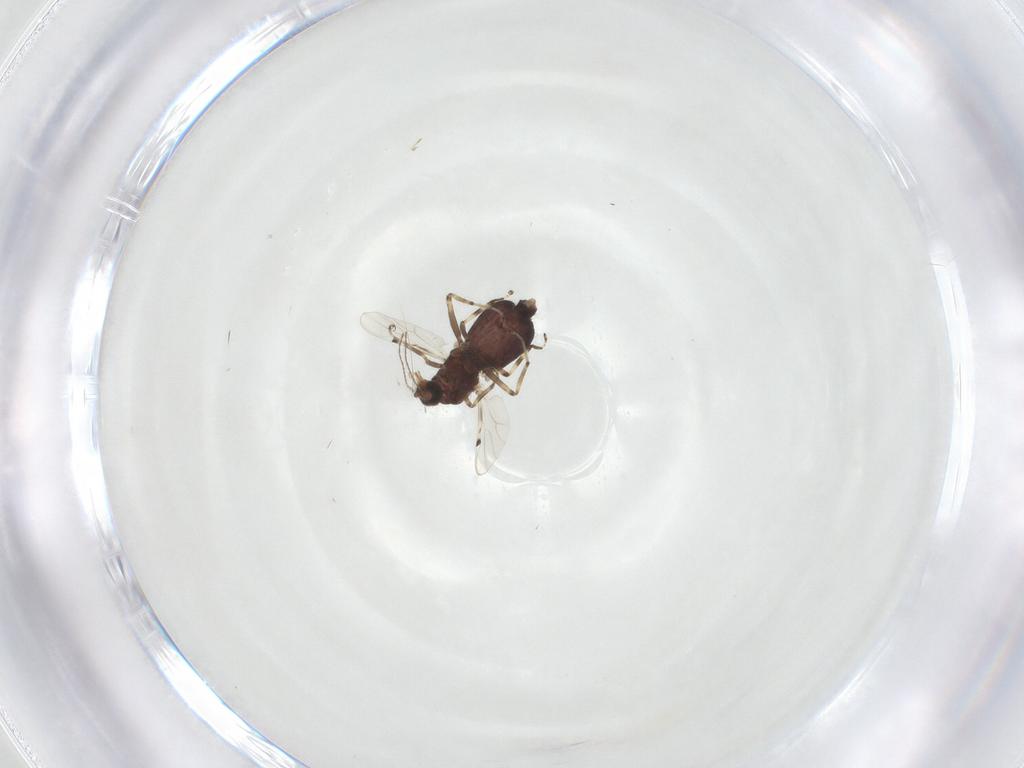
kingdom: Animalia
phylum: Arthropoda
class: Insecta
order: Diptera
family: Ceratopogonidae
